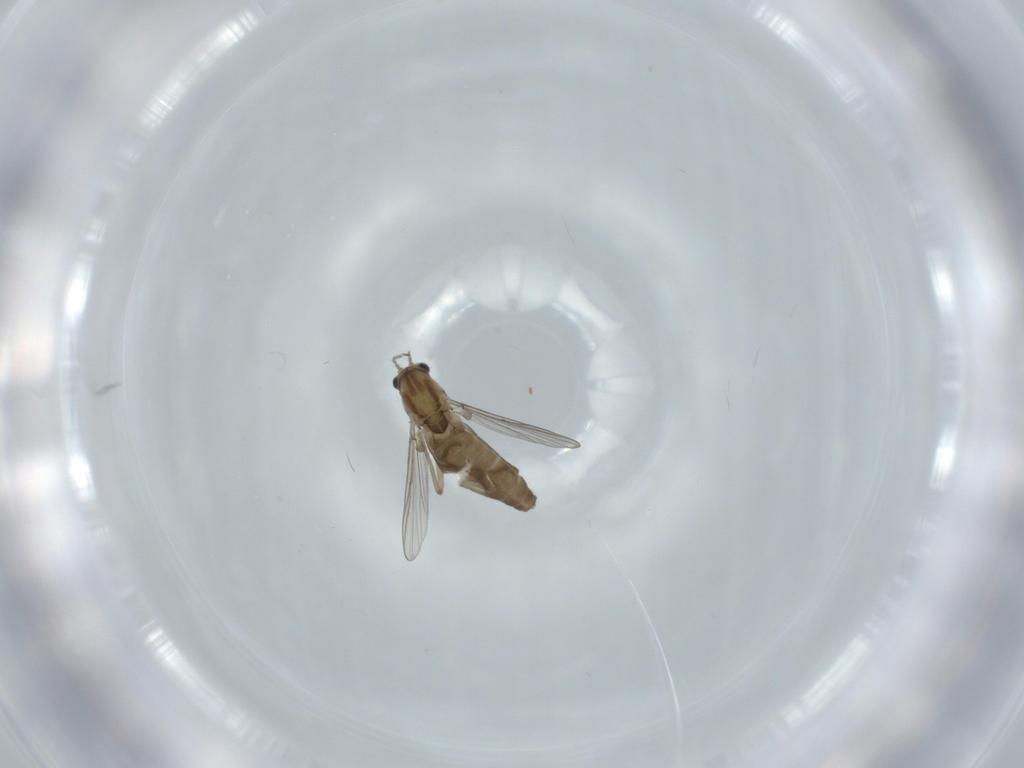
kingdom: Animalia
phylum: Arthropoda
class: Insecta
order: Diptera
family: Chironomidae
